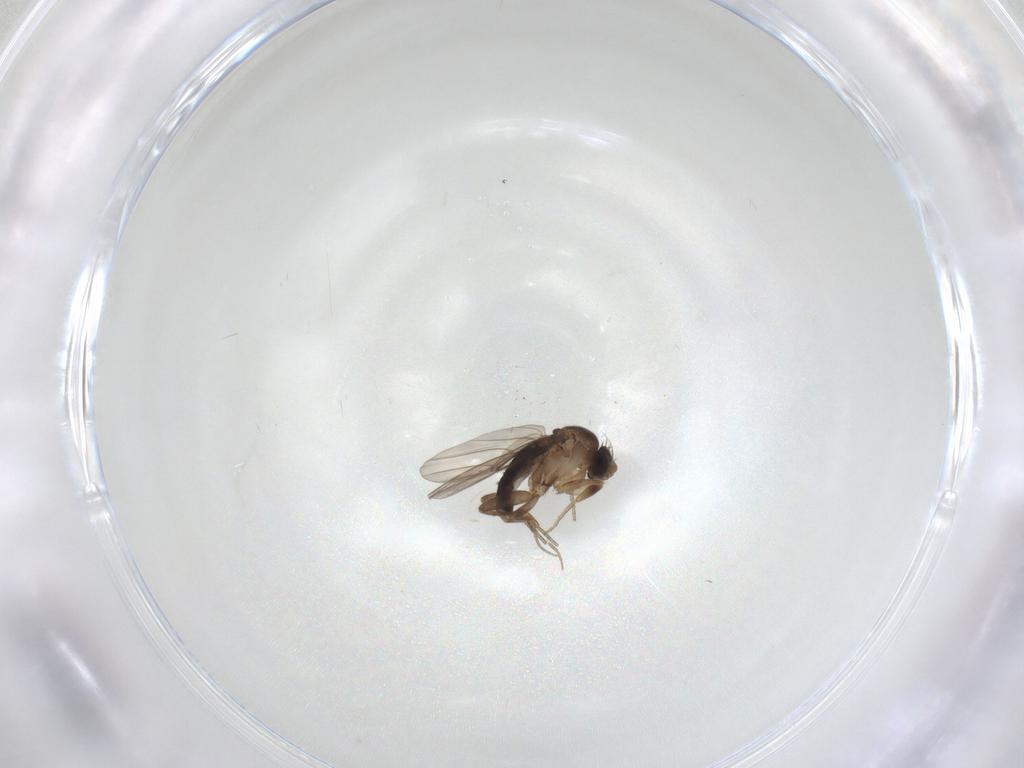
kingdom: Animalia
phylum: Arthropoda
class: Insecta
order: Diptera
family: Phoridae
